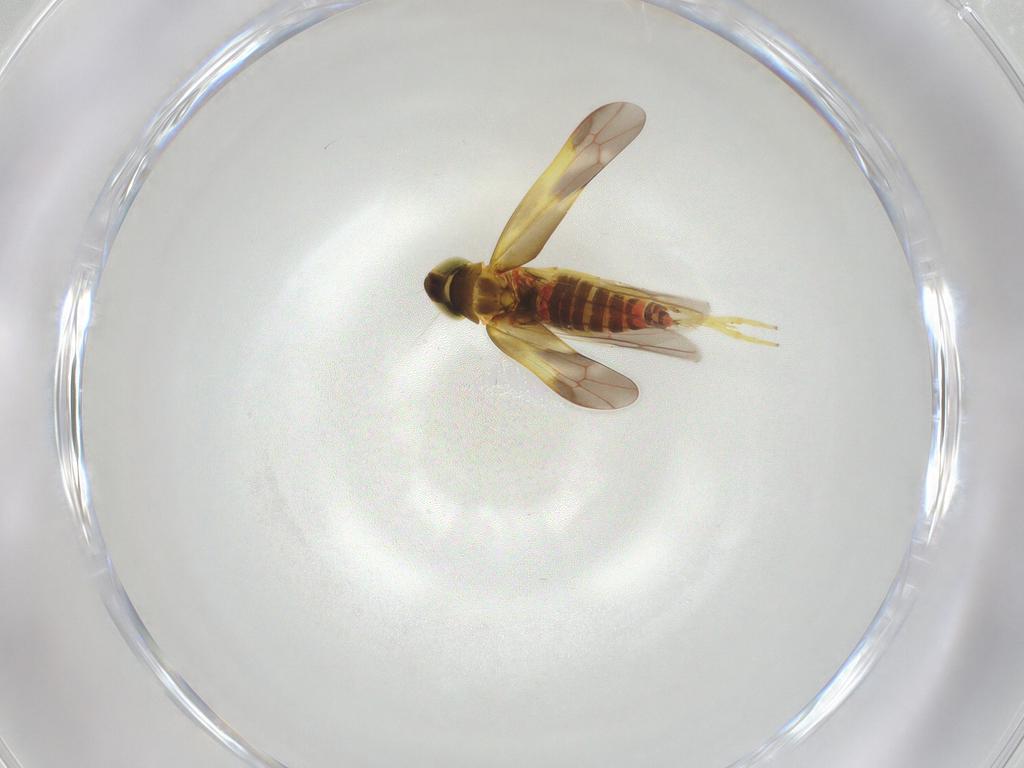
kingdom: Animalia
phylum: Arthropoda
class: Insecta
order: Hemiptera
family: Cicadellidae
